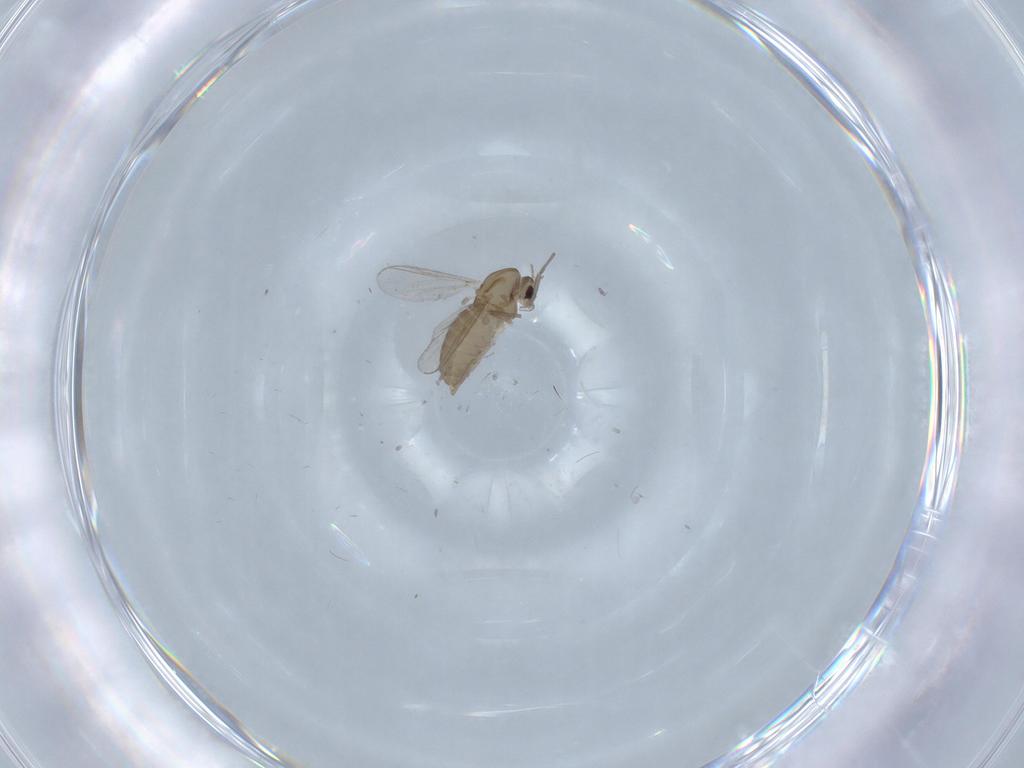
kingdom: Animalia
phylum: Arthropoda
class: Insecta
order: Diptera
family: Chironomidae
